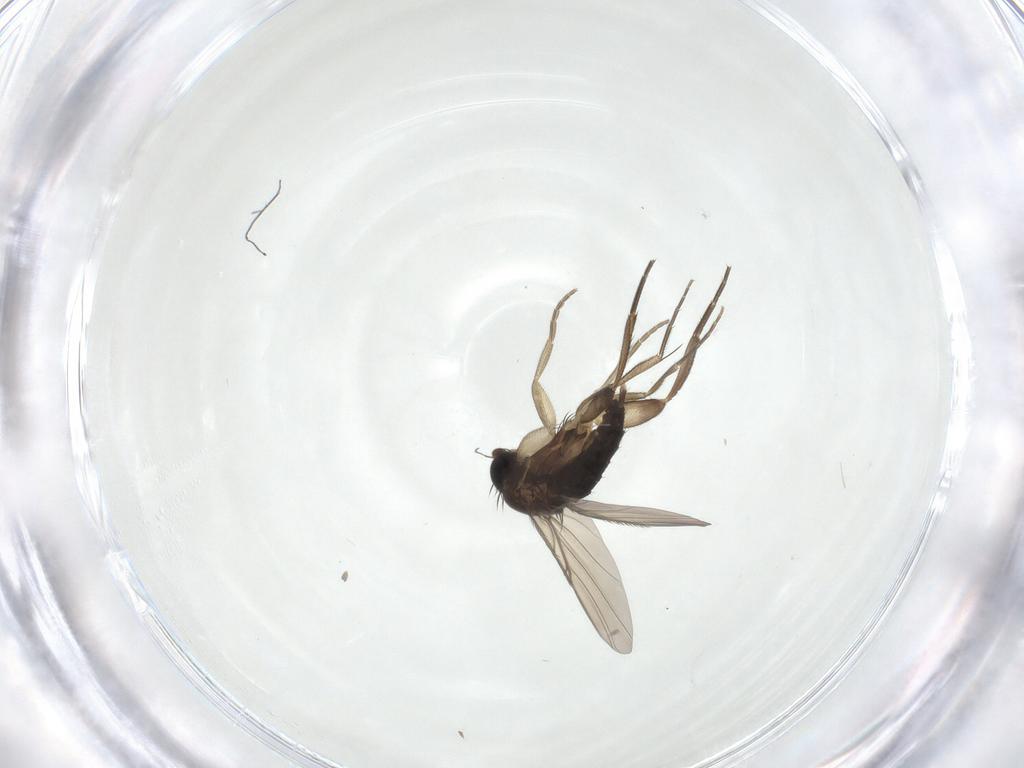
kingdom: Animalia
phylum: Arthropoda
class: Insecta
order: Diptera
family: Phoridae
